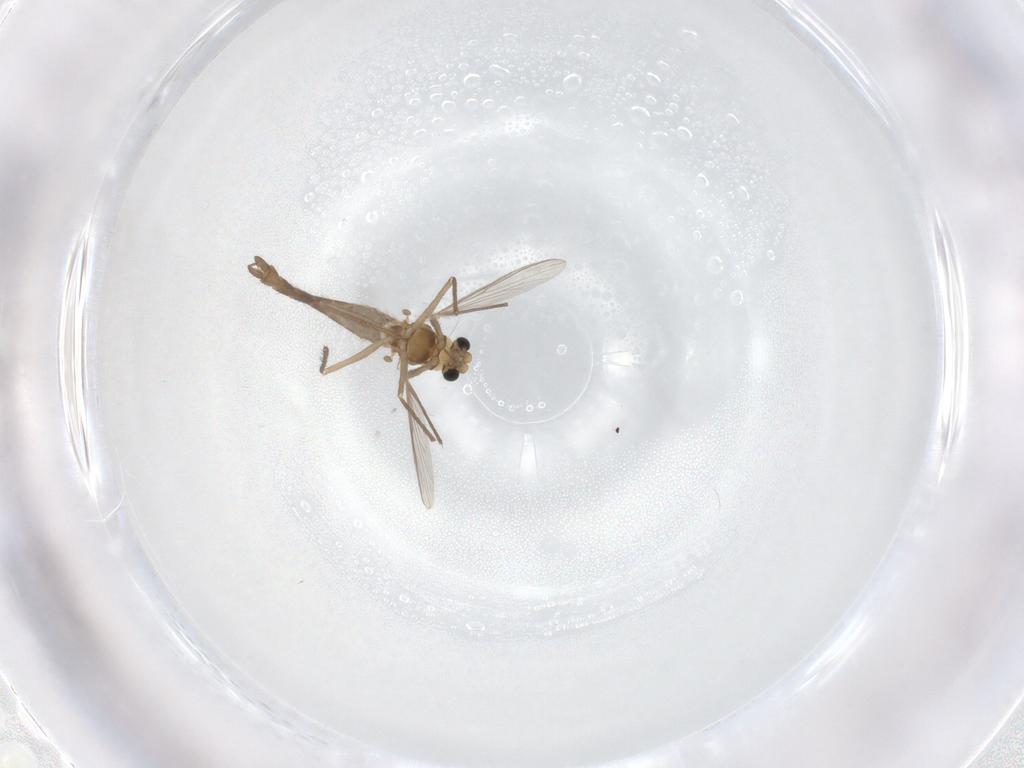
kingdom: Animalia
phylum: Arthropoda
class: Insecta
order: Diptera
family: Chironomidae
